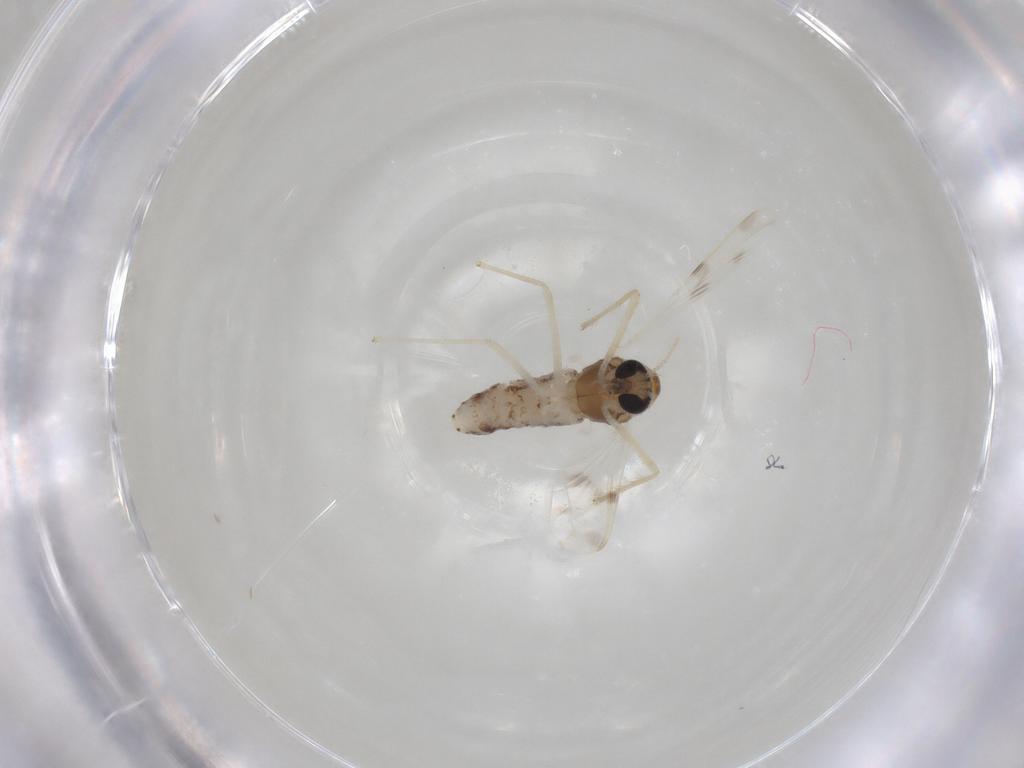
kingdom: Animalia
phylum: Arthropoda
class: Insecta
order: Diptera
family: Chironomidae
